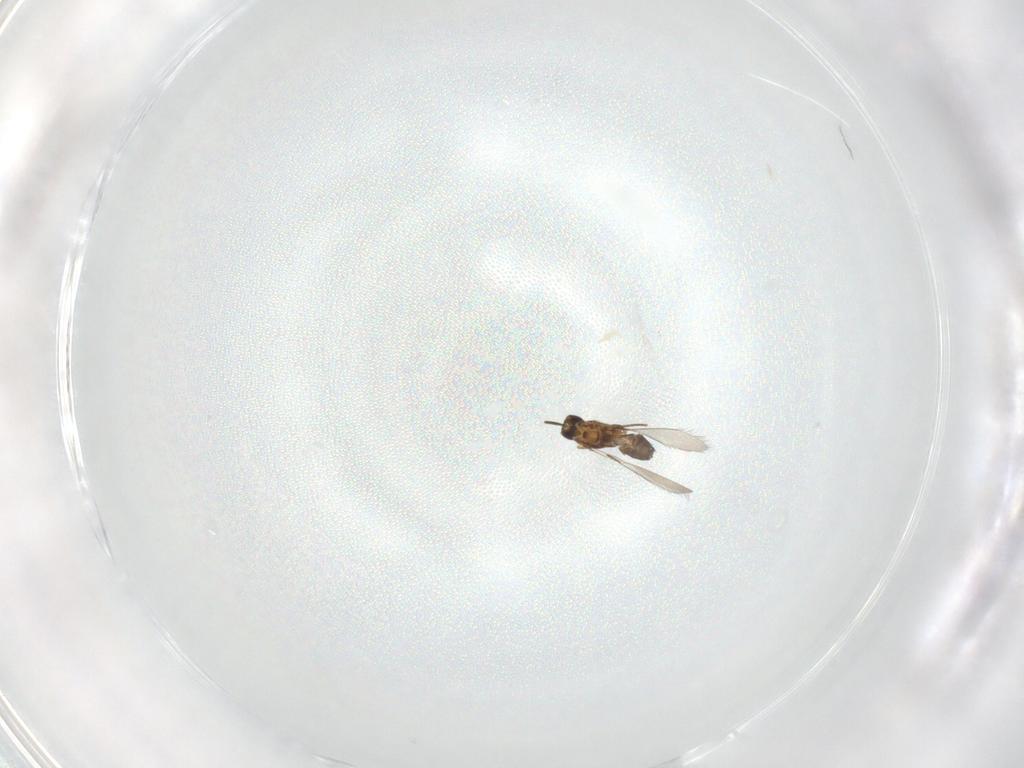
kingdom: Animalia
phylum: Arthropoda
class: Insecta
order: Hymenoptera
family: Mymaridae
